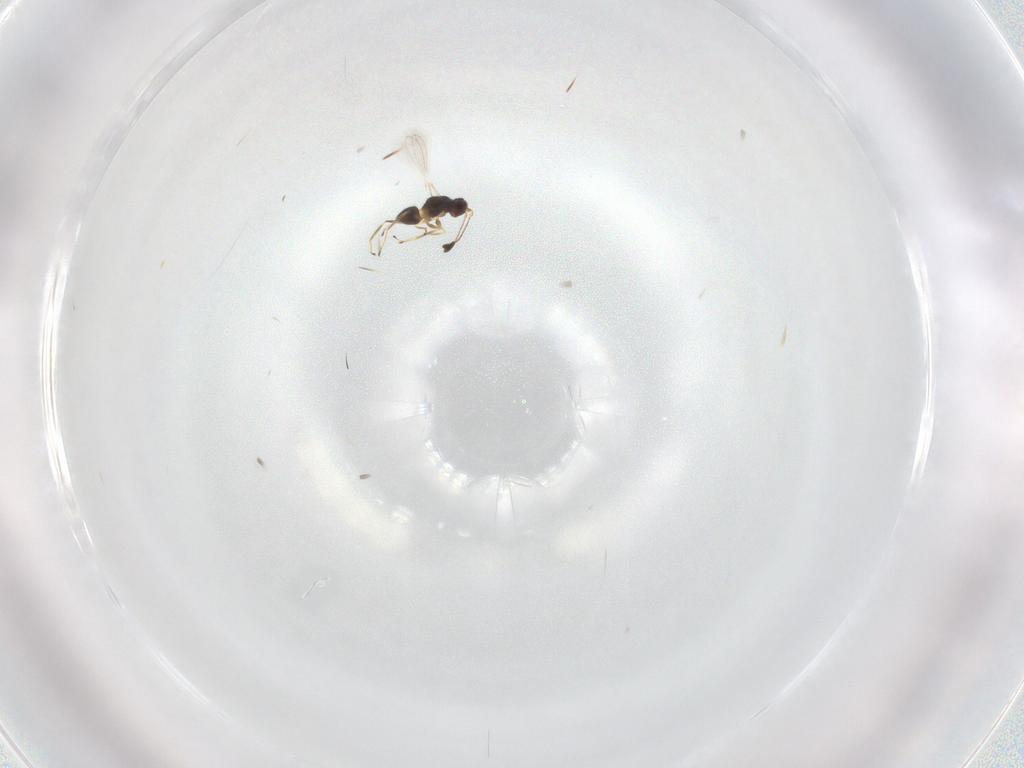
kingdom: Animalia
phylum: Arthropoda
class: Insecta
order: Hymenoptera
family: Mymaridae
